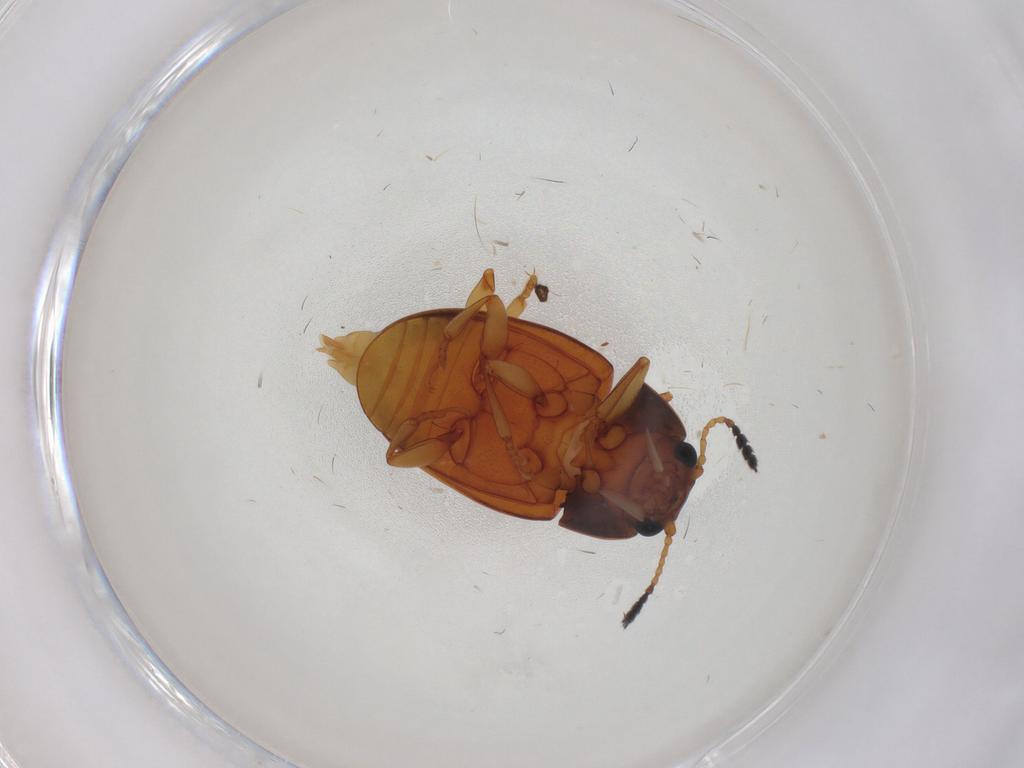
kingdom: Animalia
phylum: Arthropoda
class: Insecta
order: Coleoptera
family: Erotylidae
